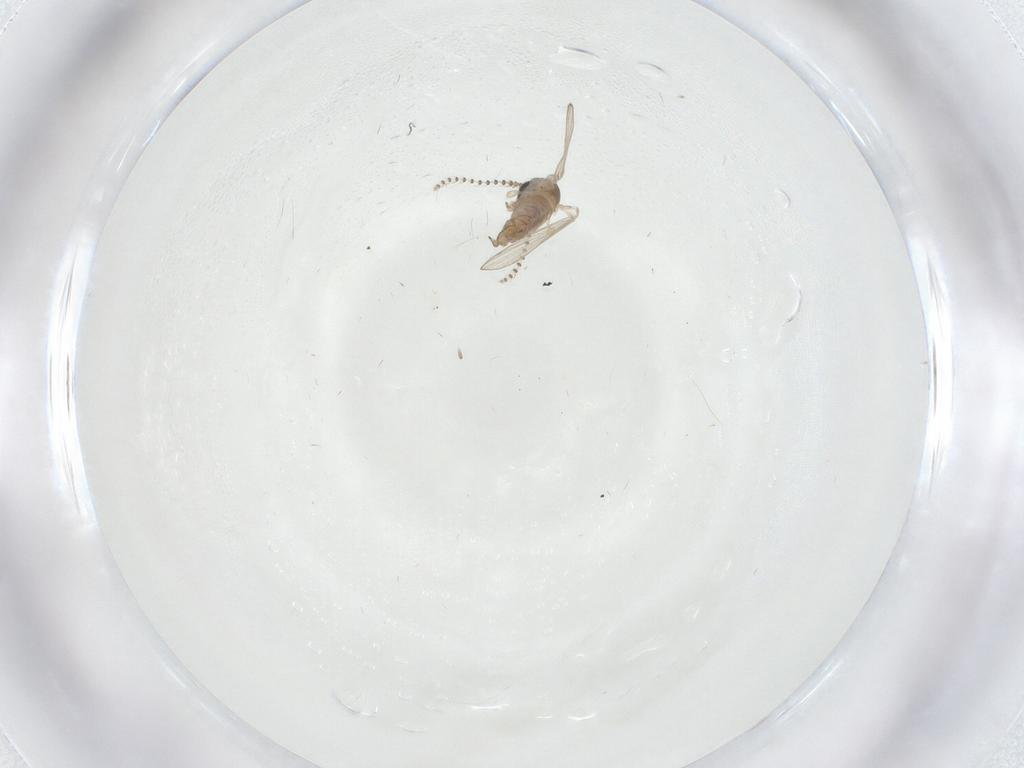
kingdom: Animalia
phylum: Arthropoda
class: Insecta
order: Diptera
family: Psychodidae
